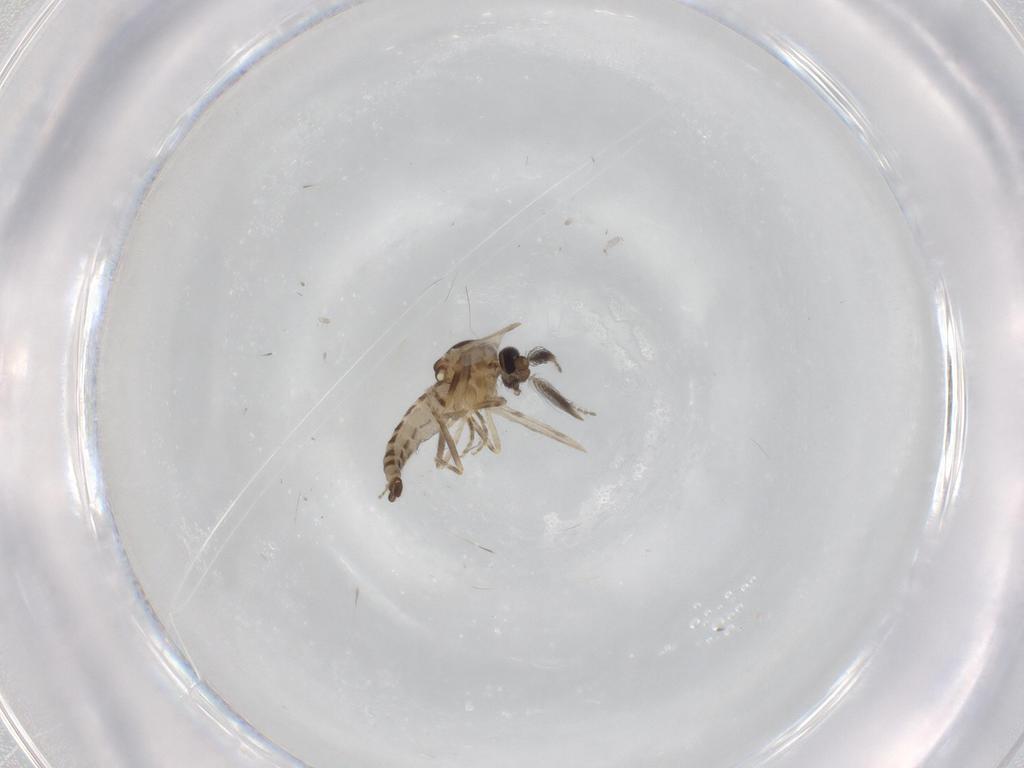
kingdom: Animalia
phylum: Arthropoda
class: Insecta
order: Diptera
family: Ceratopogonidae
